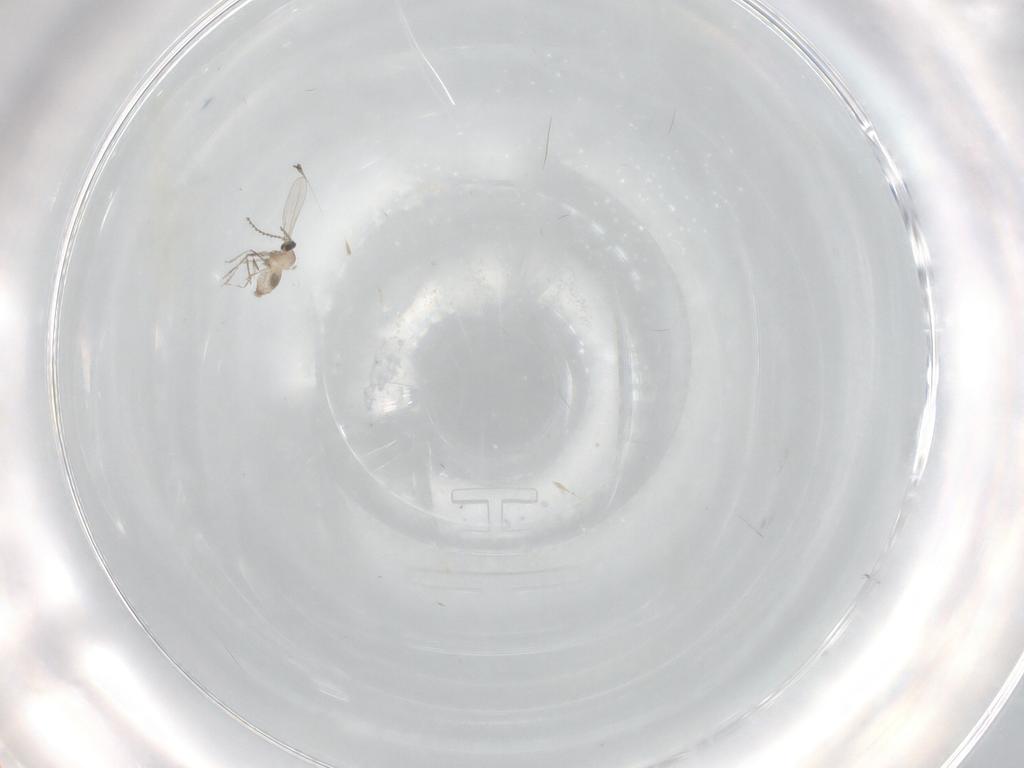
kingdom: Animalia
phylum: Arthropoda
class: Insecta
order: Diptera
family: Cecidomyiidae
